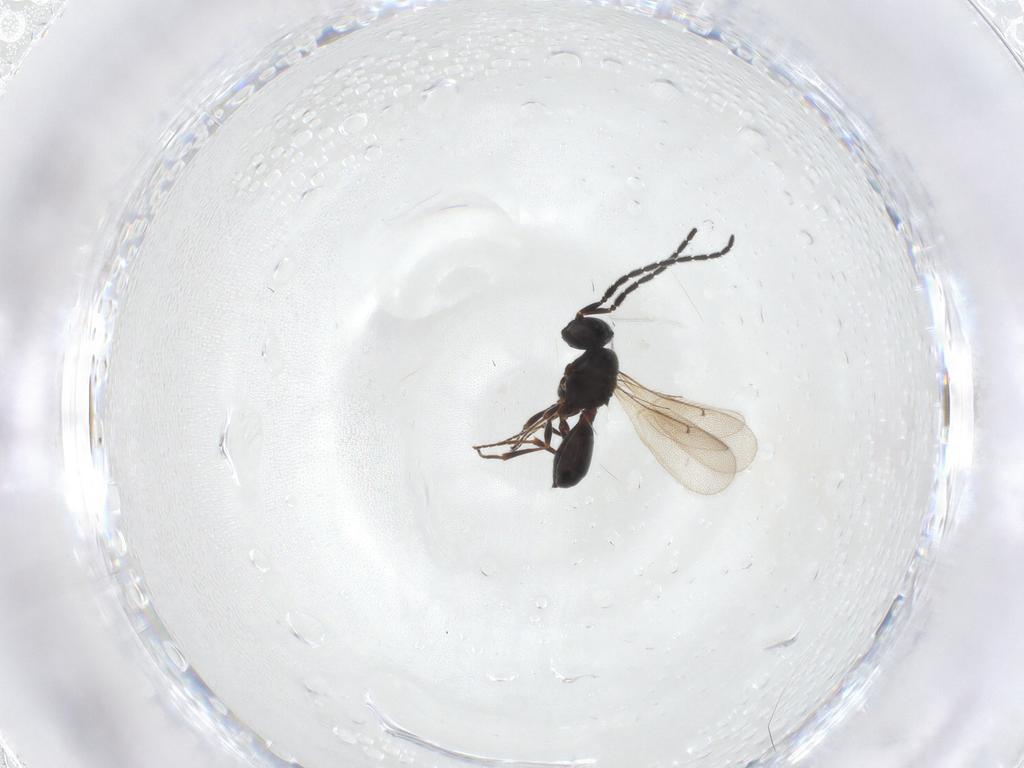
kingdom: Animalia
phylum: Arthropoda
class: Insecta
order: Hymenoptera
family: Scelionidae
